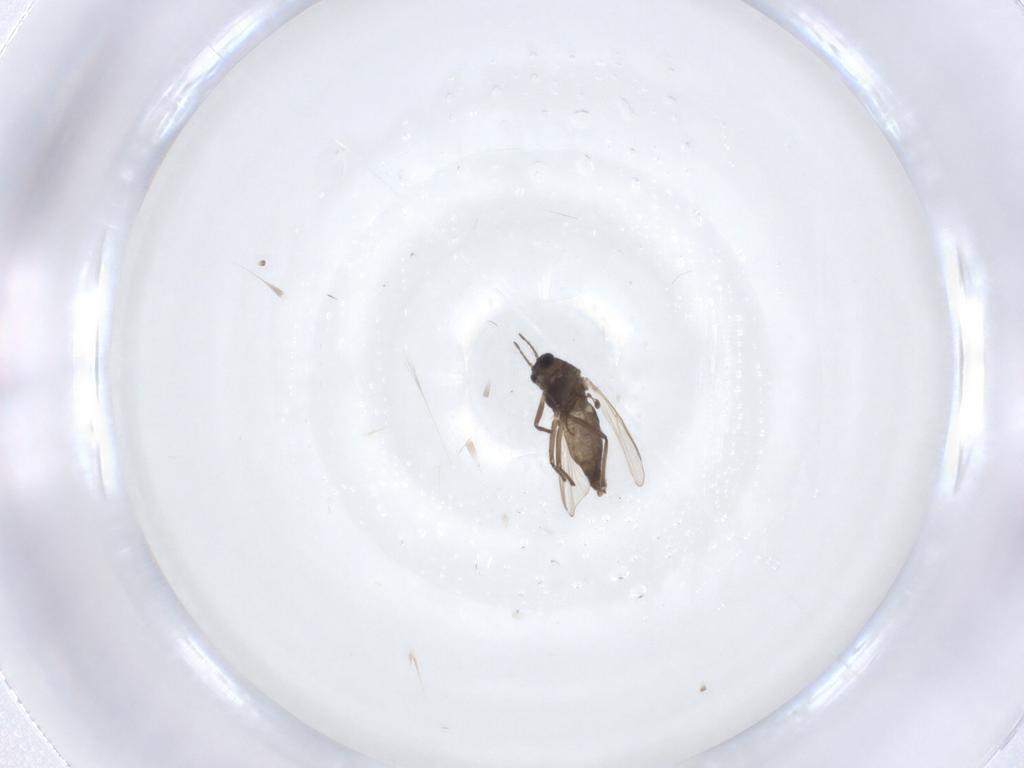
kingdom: Animalia
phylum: Arthropoda
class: Insecta
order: Diptera
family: Chironomidae
